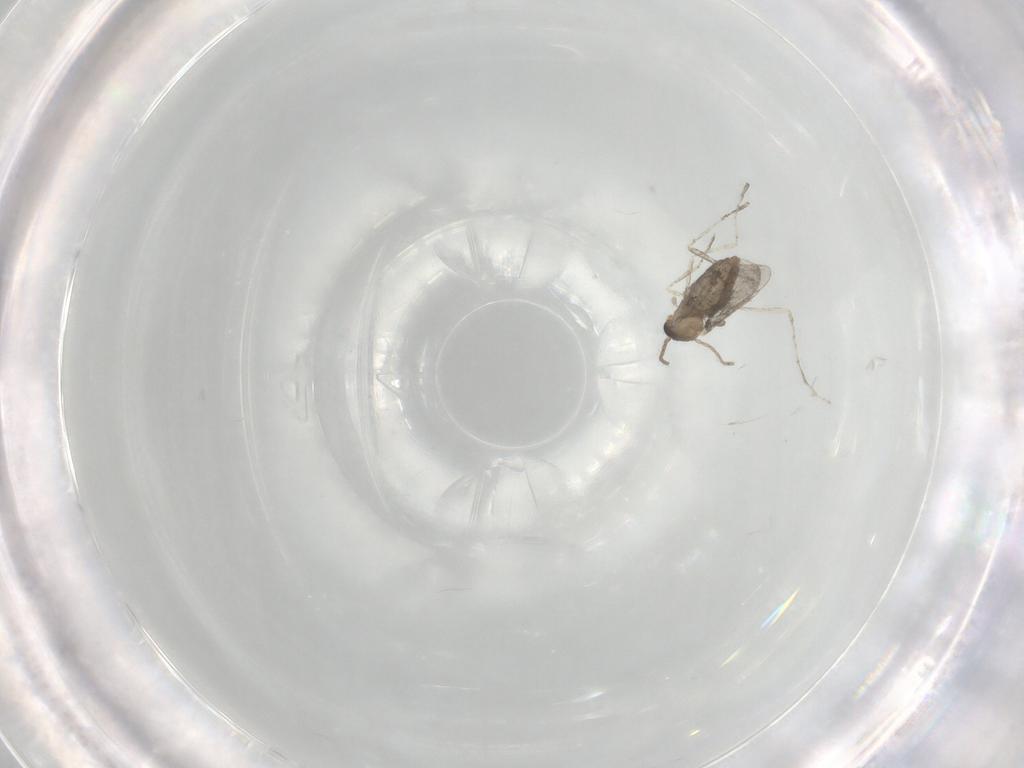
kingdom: Animalia
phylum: Arthropoda
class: Insecta
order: Diptera
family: Cecidomyiidae
